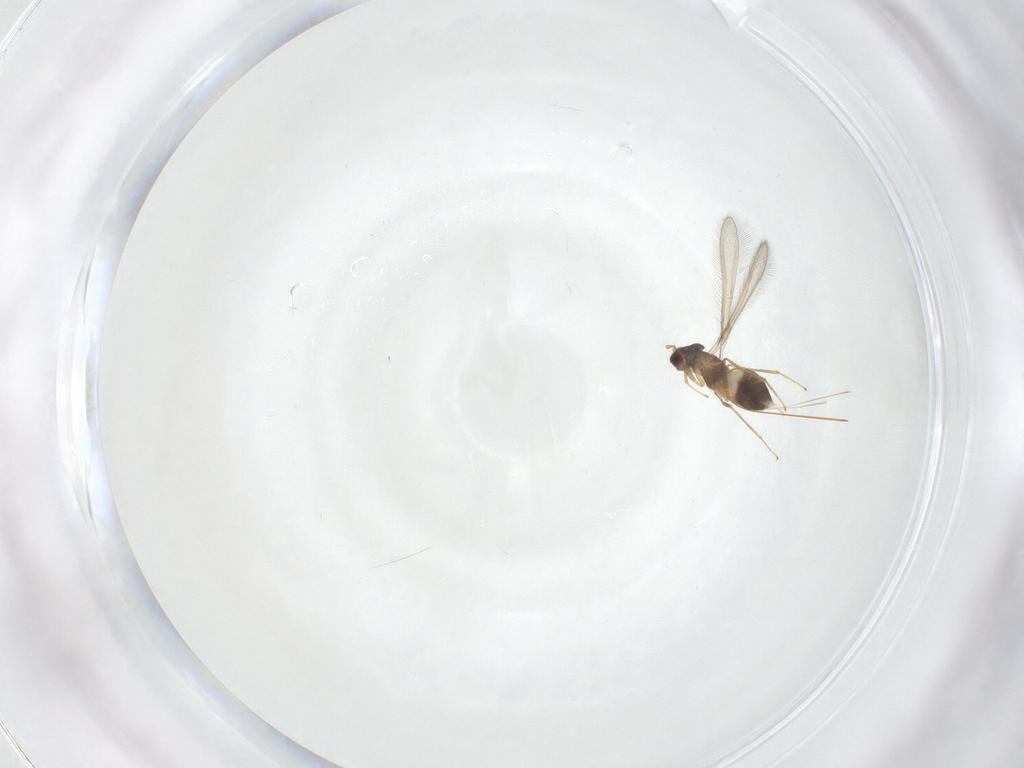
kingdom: Animalia
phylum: Arthropoda
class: Insecta
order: Hymenoptera
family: Mymaridae
